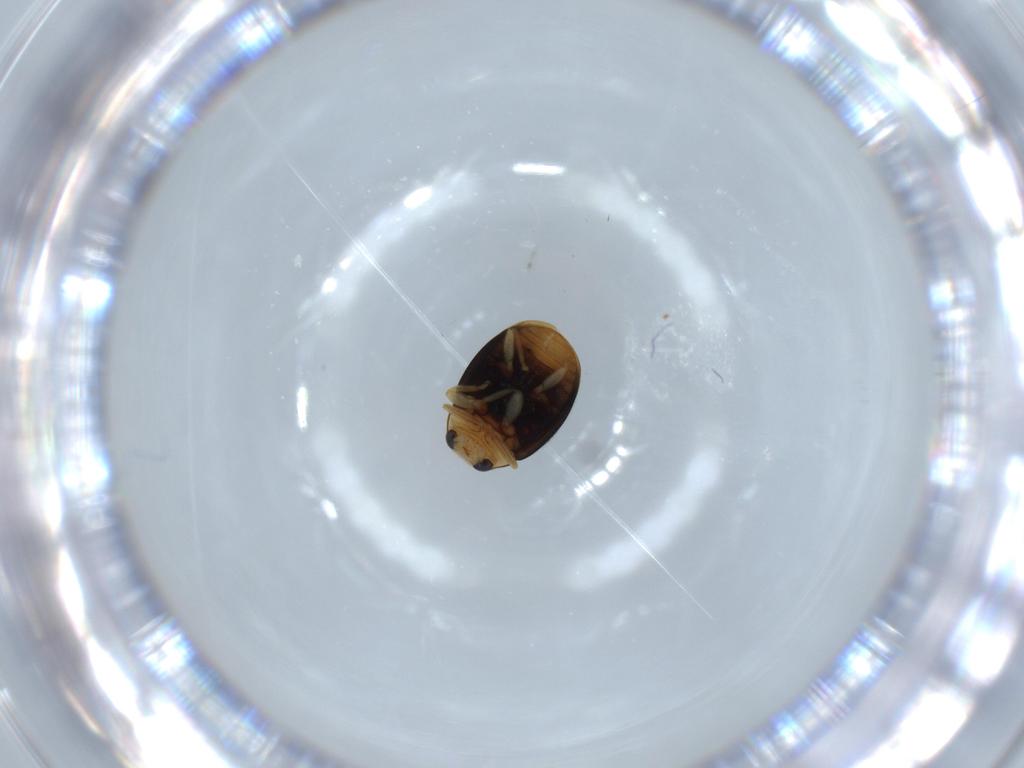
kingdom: Animalia
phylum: Arthropoda
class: Insecta
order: Coleoptera
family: Coccinellidae
